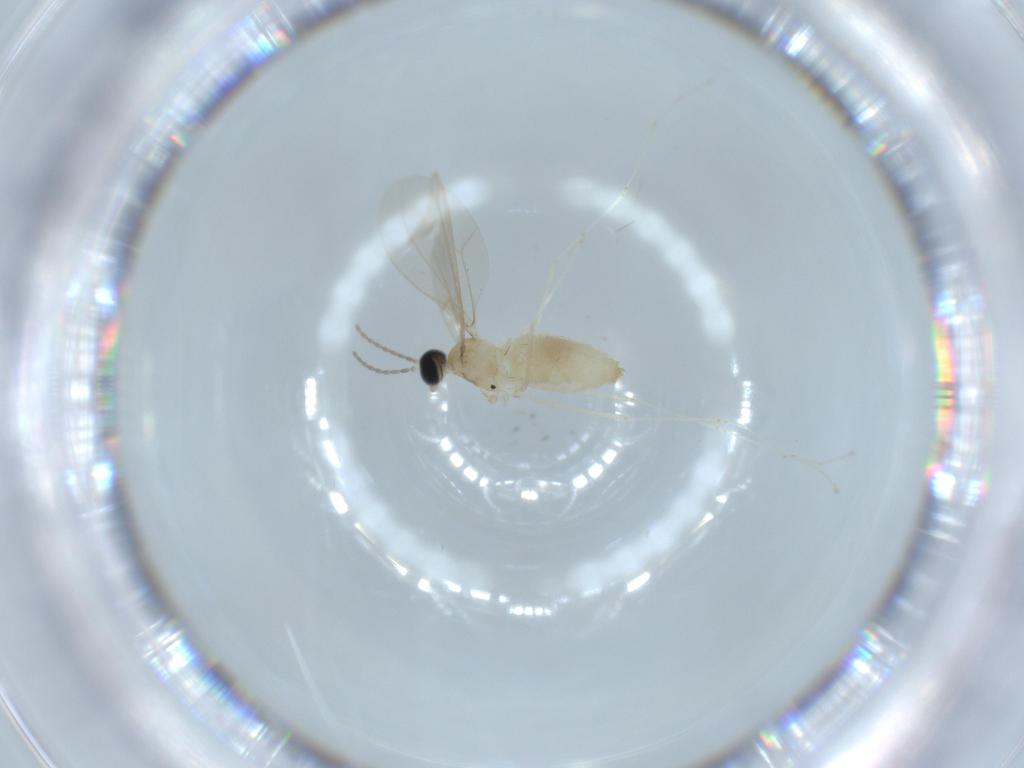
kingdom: Animalia
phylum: Arthropoda
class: Insecta
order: Diptera
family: Cecidomyiidae
